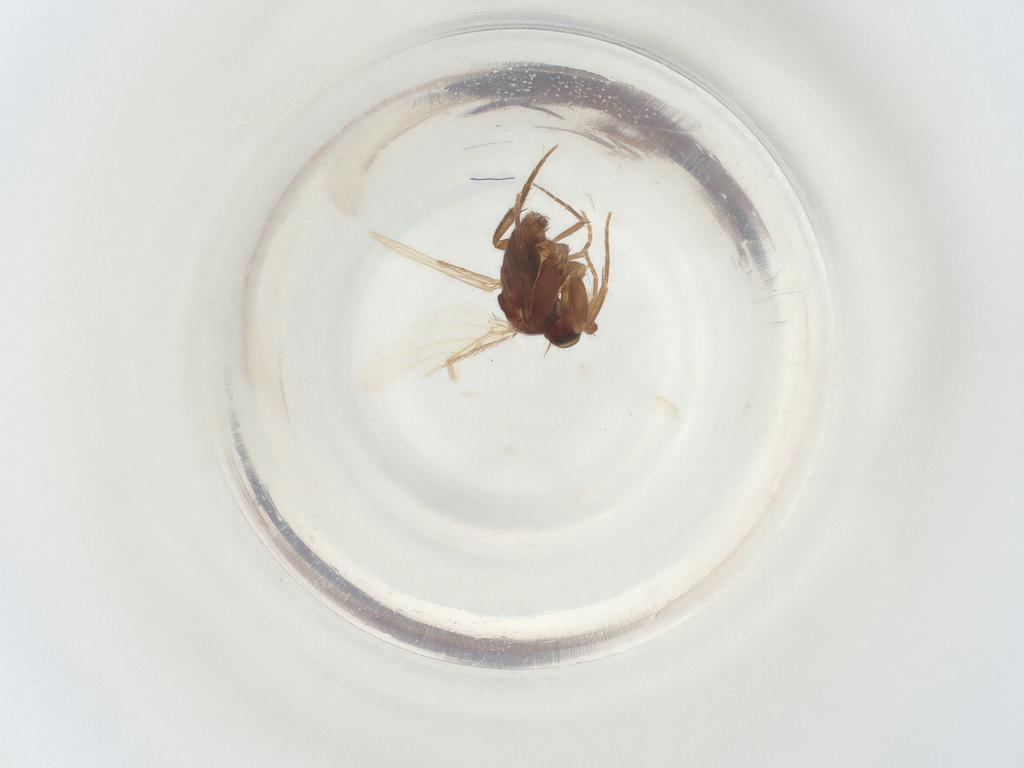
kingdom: Animalia
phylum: Arthropoda
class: Insecta
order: Diptera
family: Phoridae
